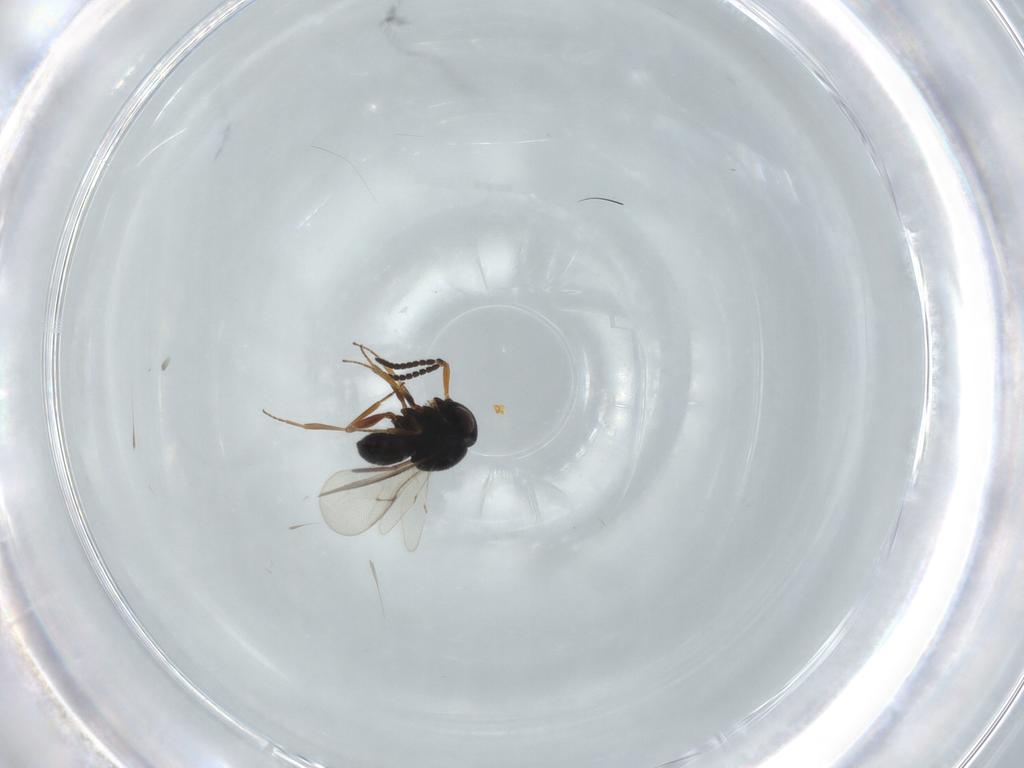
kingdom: Animalia
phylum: Arthropoda
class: Insecta
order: Hymenoptera
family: Scelionidae
